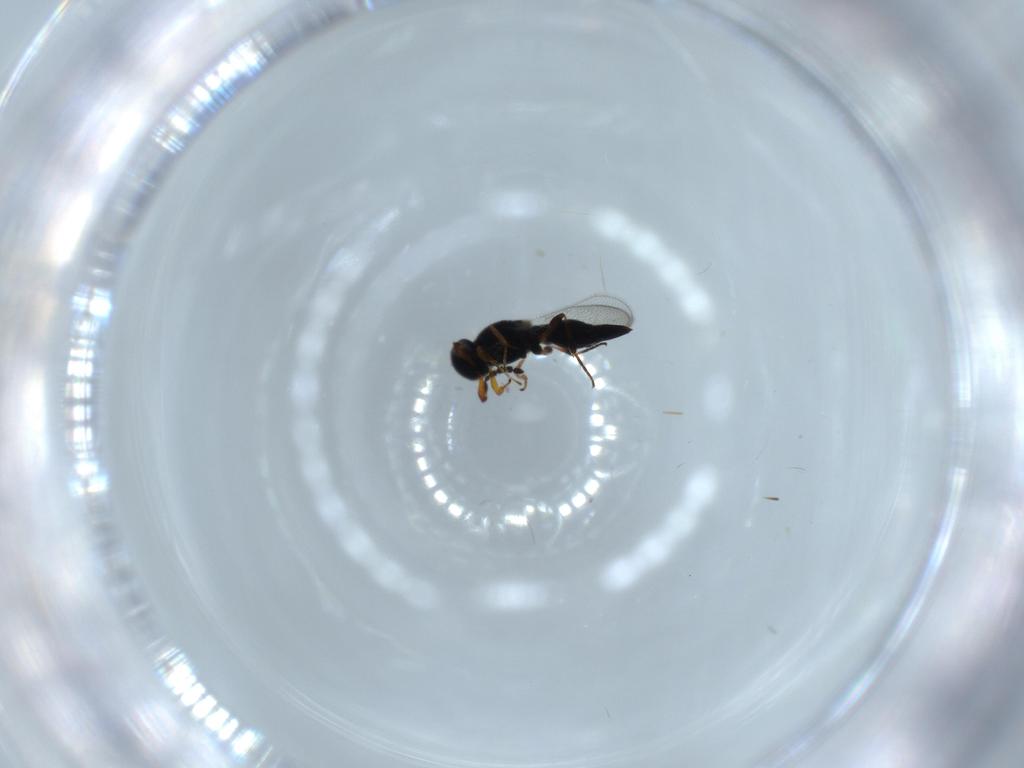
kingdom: Animalia
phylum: Arthropoda
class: Insecta
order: Hymenoptera
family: Platygastridae
